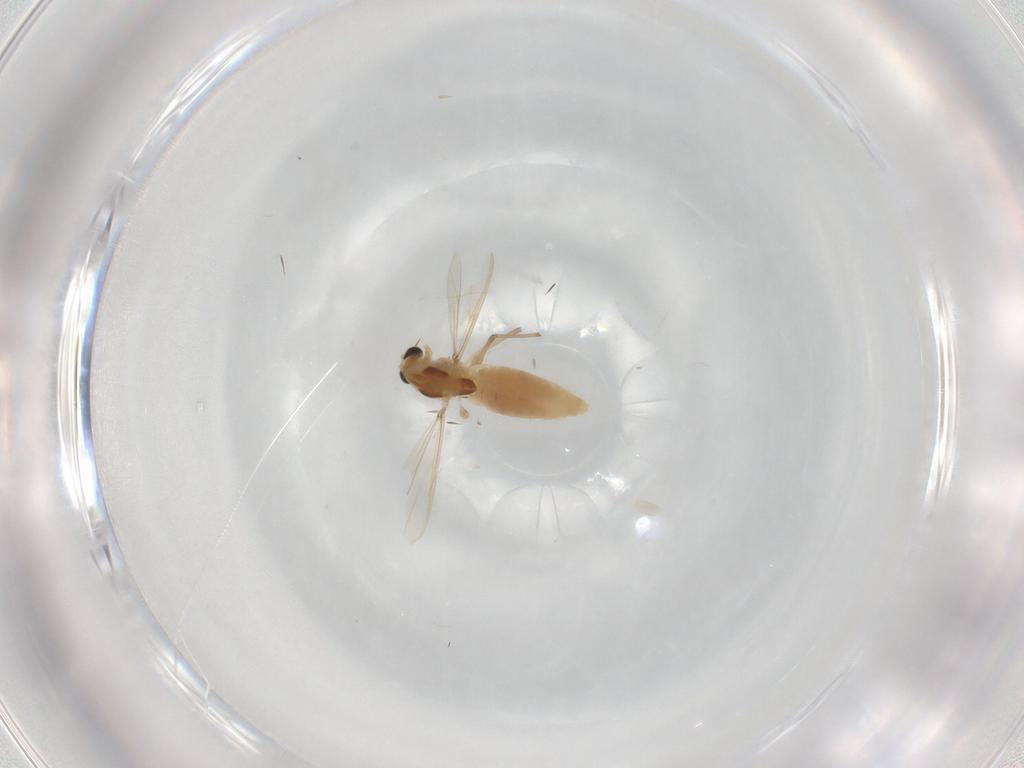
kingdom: Animalia
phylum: Arthropoda
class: Insecta
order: Diptera
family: Chironomidae
